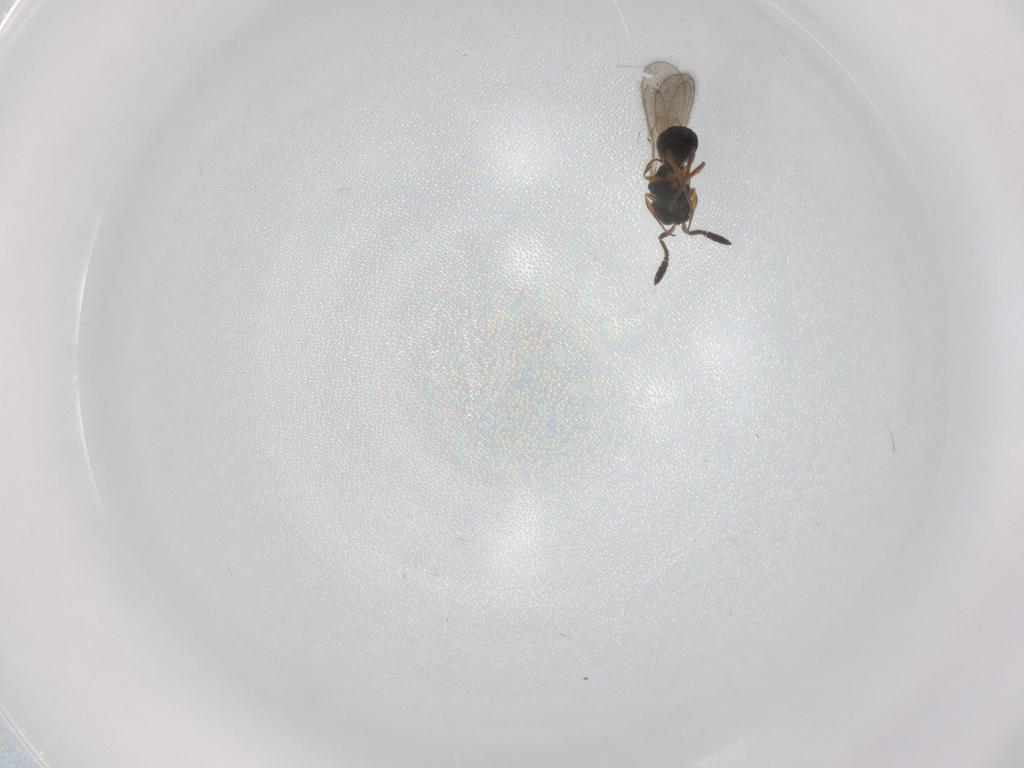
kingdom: Animalia
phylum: Arthropoda
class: Insecta
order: Hymenoptera
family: Scelionidae
